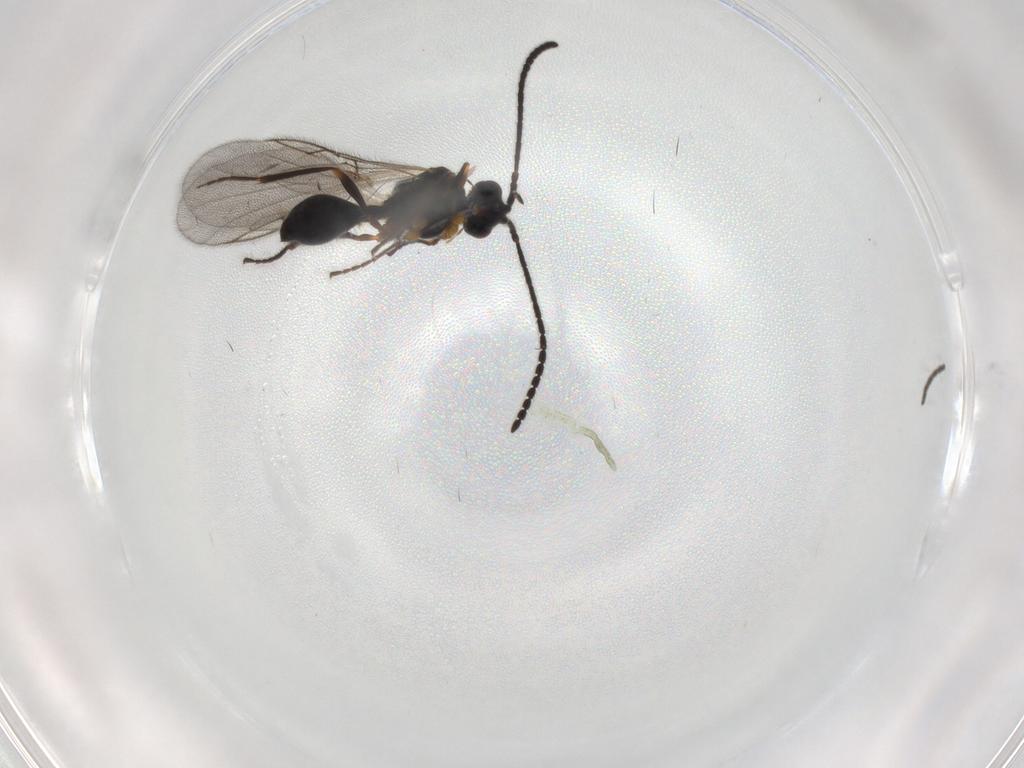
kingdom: Animalia
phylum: Arthropoda
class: Insecta
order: Hymenoptera
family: Diapriidae
